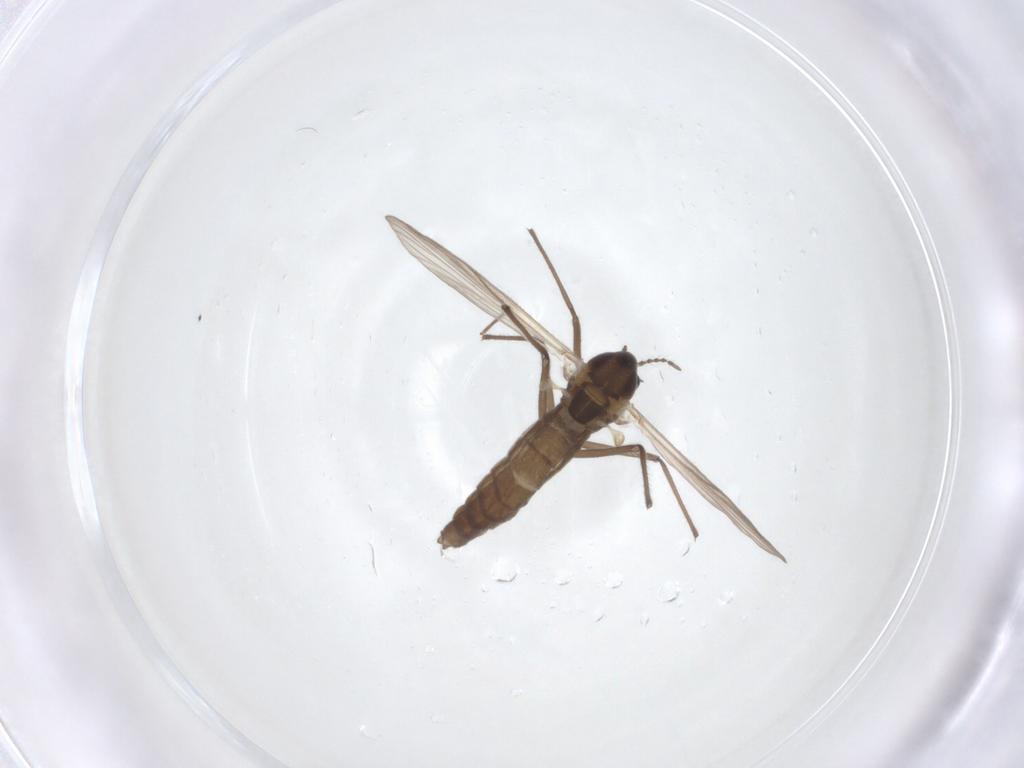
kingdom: Animalia
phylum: Arthropoda
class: Insecta
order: Diptera
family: Chironomidae
